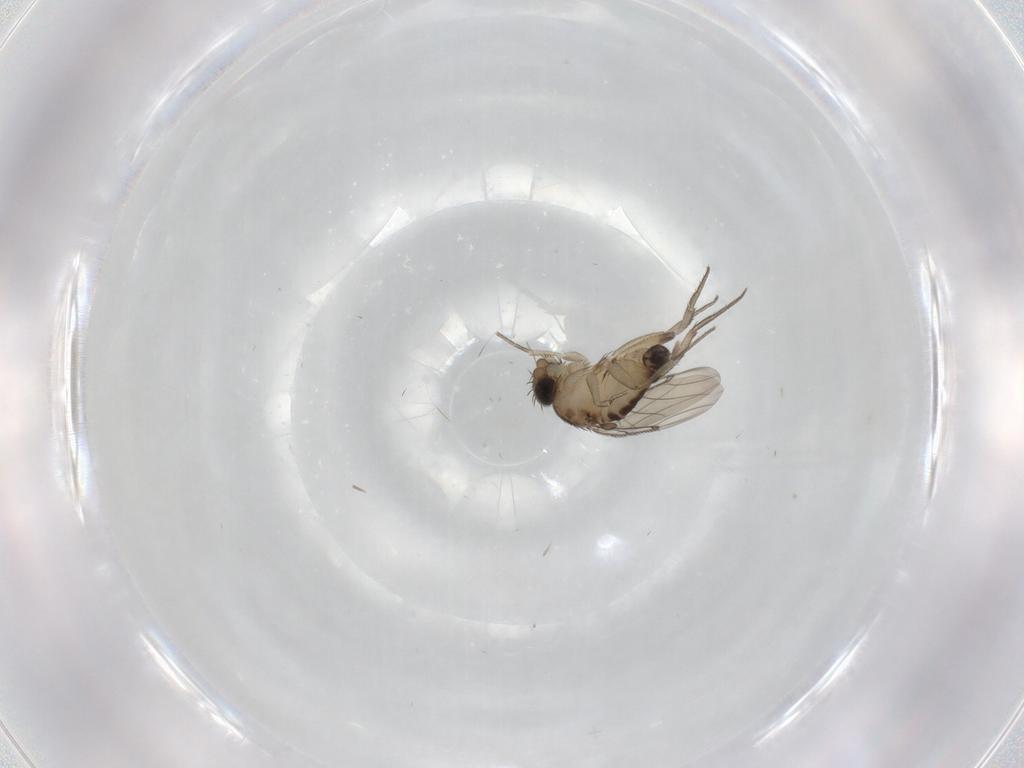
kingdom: Animalia
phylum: Arthropoda
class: Insecta
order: Diptera
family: Phoridae
